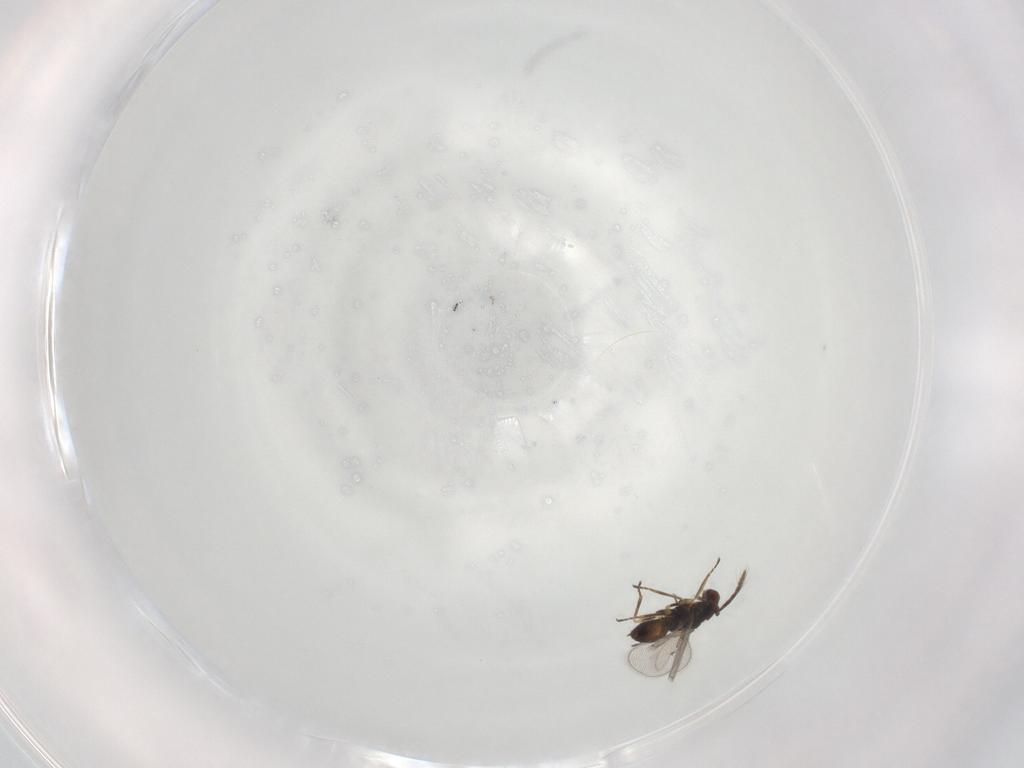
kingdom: Animalia
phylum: Arthropoda
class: Insecta
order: Hymenoptera
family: Eulophidae
